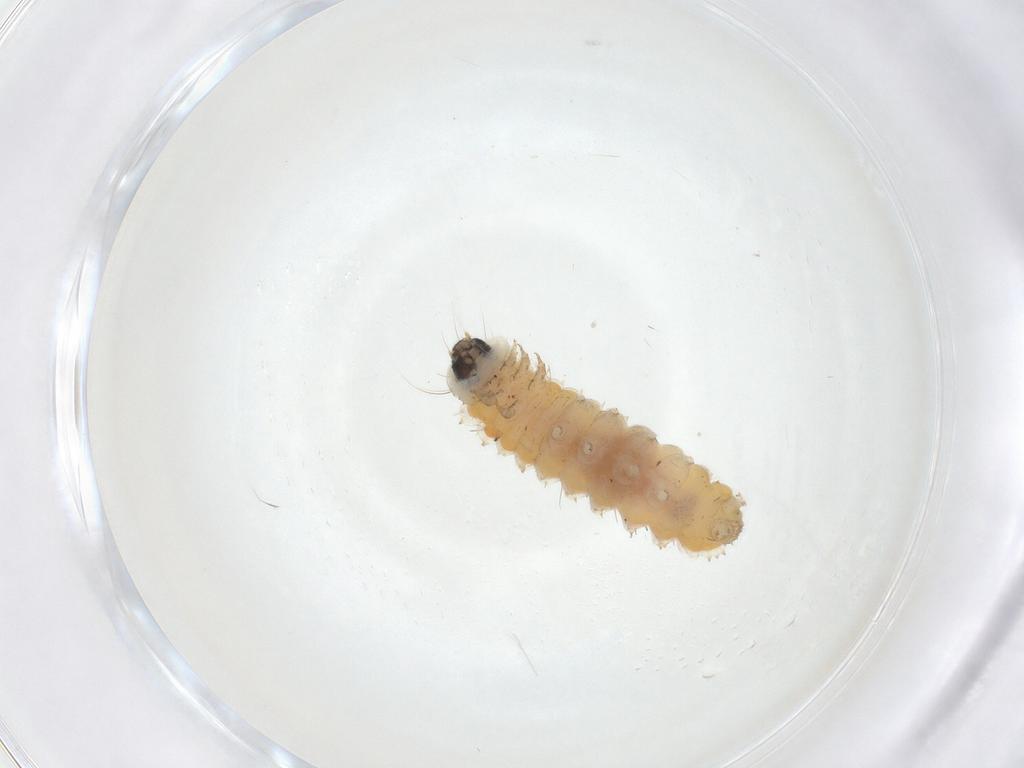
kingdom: Animalia
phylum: Arthropoda
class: Insecta
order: Lepidoptera
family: Zygaenidae
